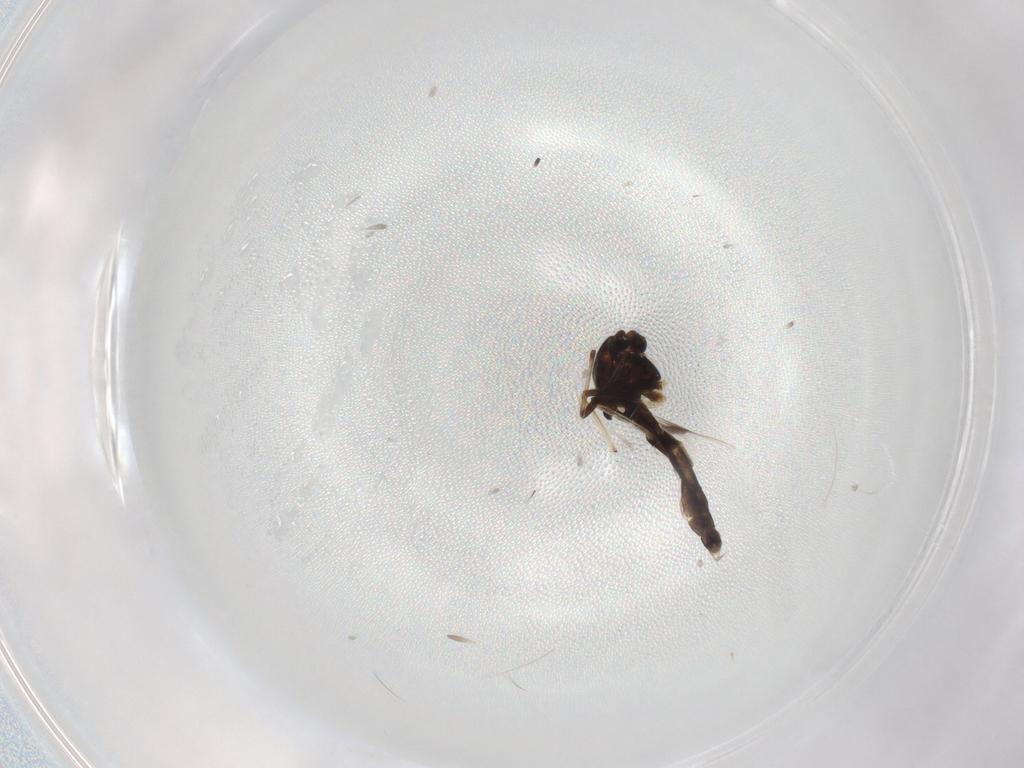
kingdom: Animalia
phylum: Arthropoda
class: Insecta
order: Diptera
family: Chironomidae
